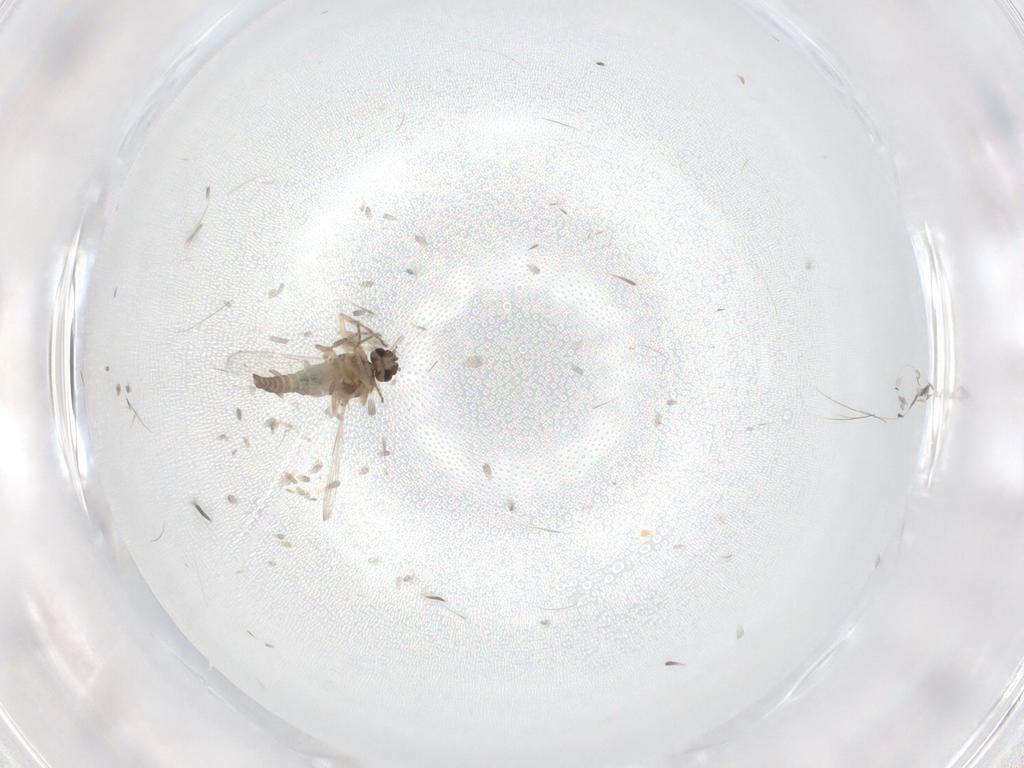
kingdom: Animalia
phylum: Arthropoda
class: Insecta
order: Diptera
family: Ceratopogonidae
